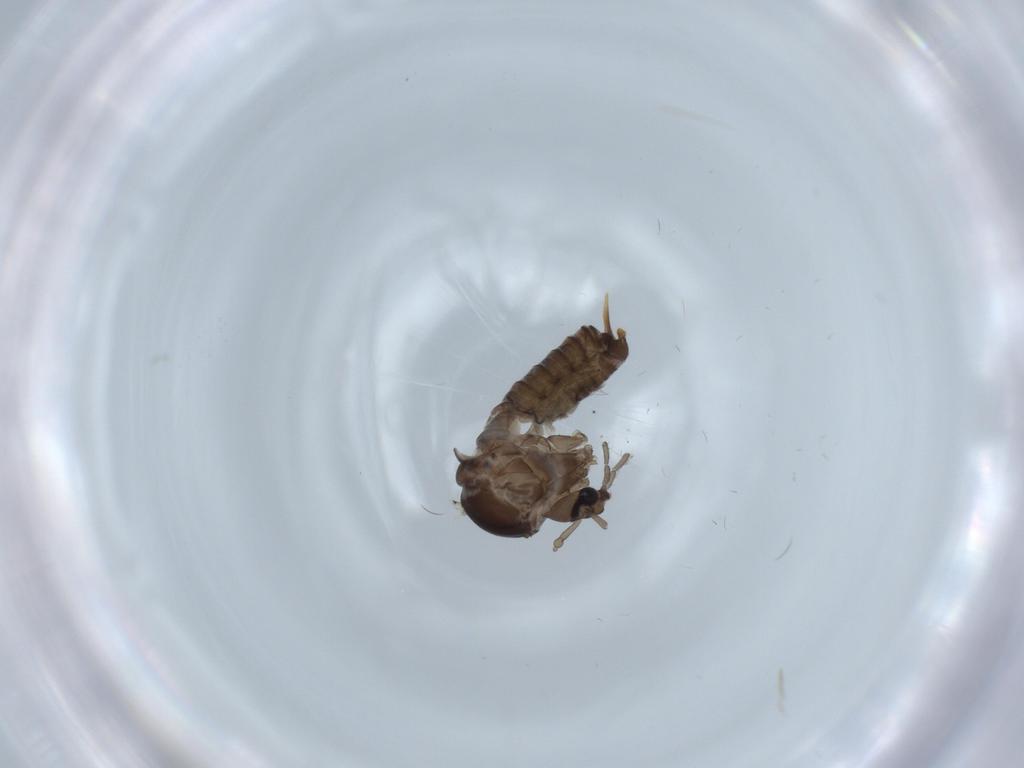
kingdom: Animalia
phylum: Arthropoda
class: Insecta
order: Diptera
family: Psychodidae
